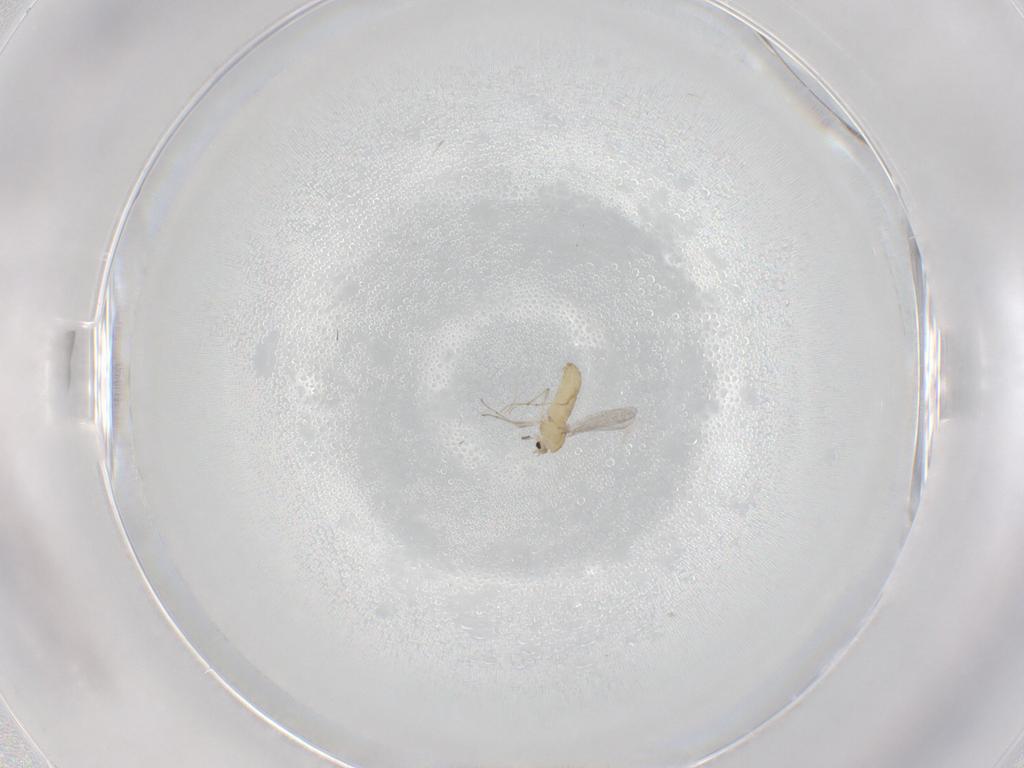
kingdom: Animalia
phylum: Arthropoda
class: Insecta
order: Diptera
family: Chironomidae
